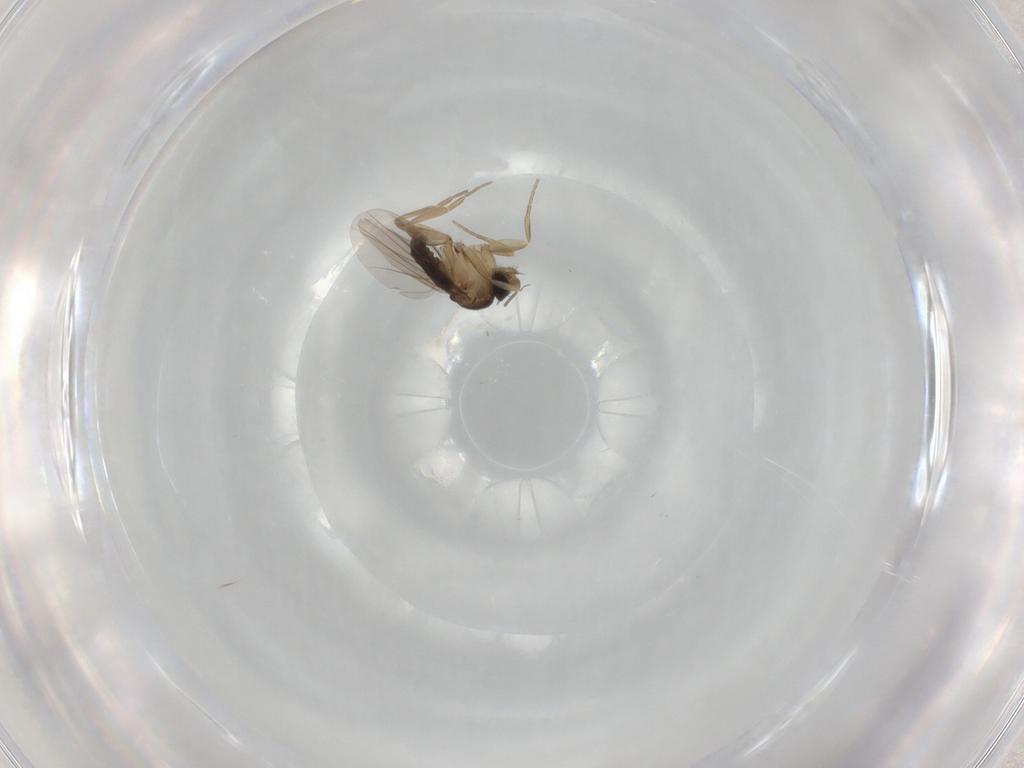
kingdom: Animalia
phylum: Arthropoda
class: Insecta
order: Diptera
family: Phoridae
